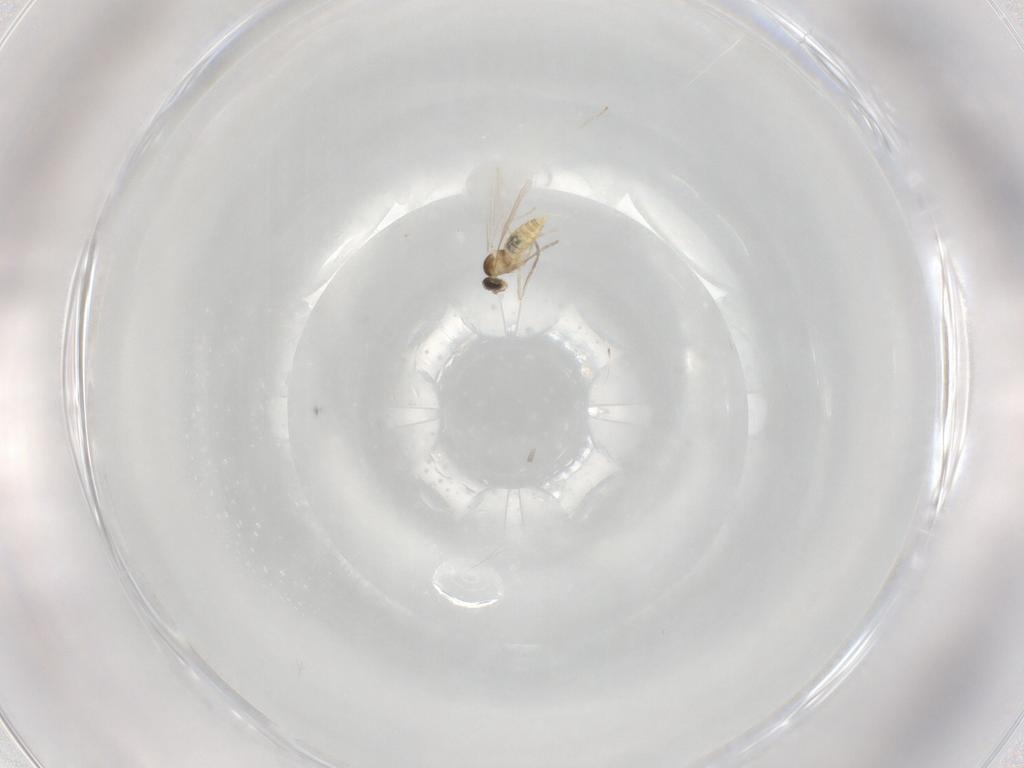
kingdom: Animalia
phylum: Arthropoda
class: Insecta
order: Diptera
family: Cecidomyiidae
